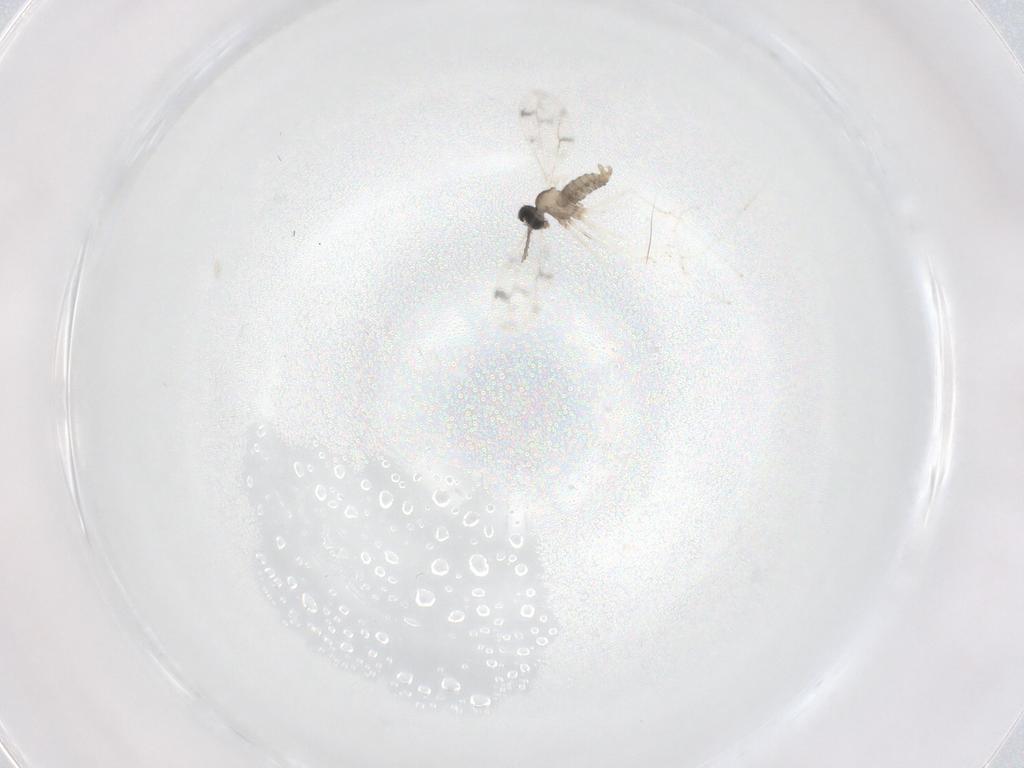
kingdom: Animalia
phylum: Arthropoda
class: Insecta
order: Diptera
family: Cecidomyiidae
